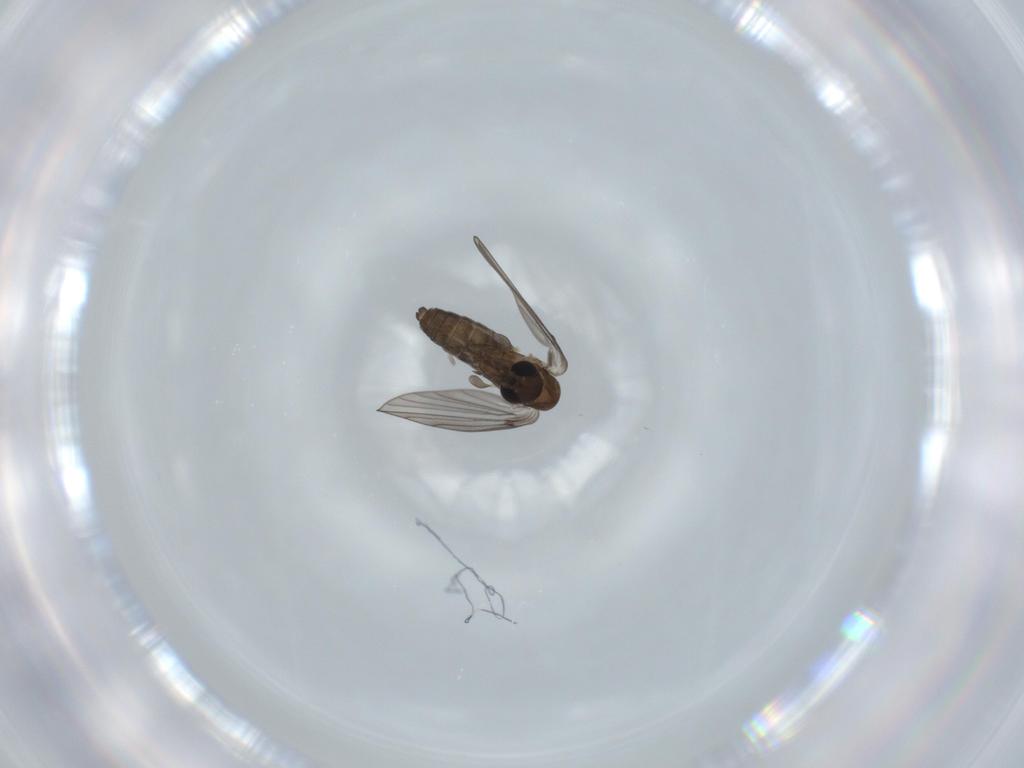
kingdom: Animalia
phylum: Arthropoda
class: Insecta
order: Diptera
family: Psychodidae
